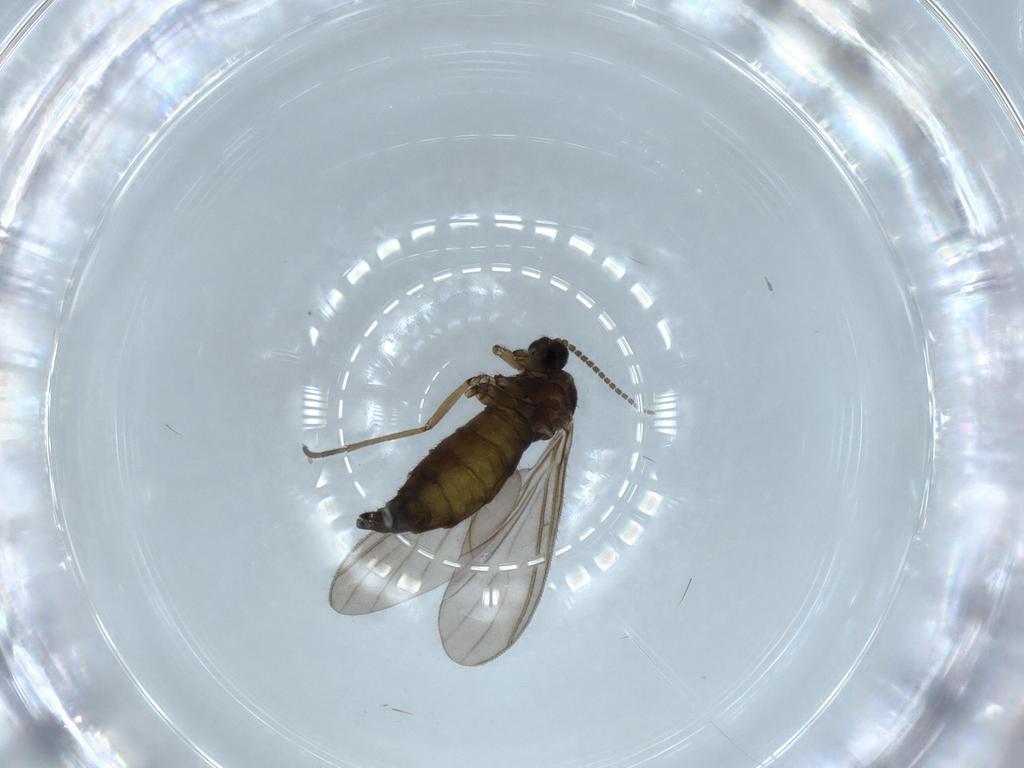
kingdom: Animalia
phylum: Arthropoda
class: Insecta
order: Diptera
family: Sciaridae
